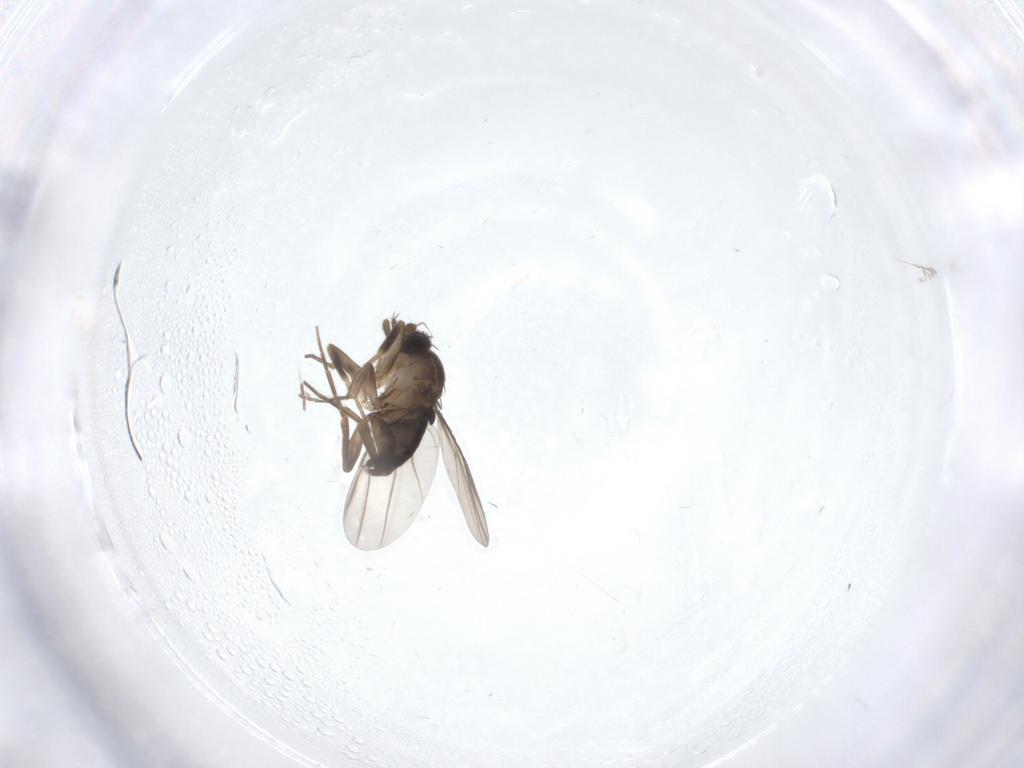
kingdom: Animalia
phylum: Arthropoda
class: Insecta
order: Diptera
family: Phoridae
